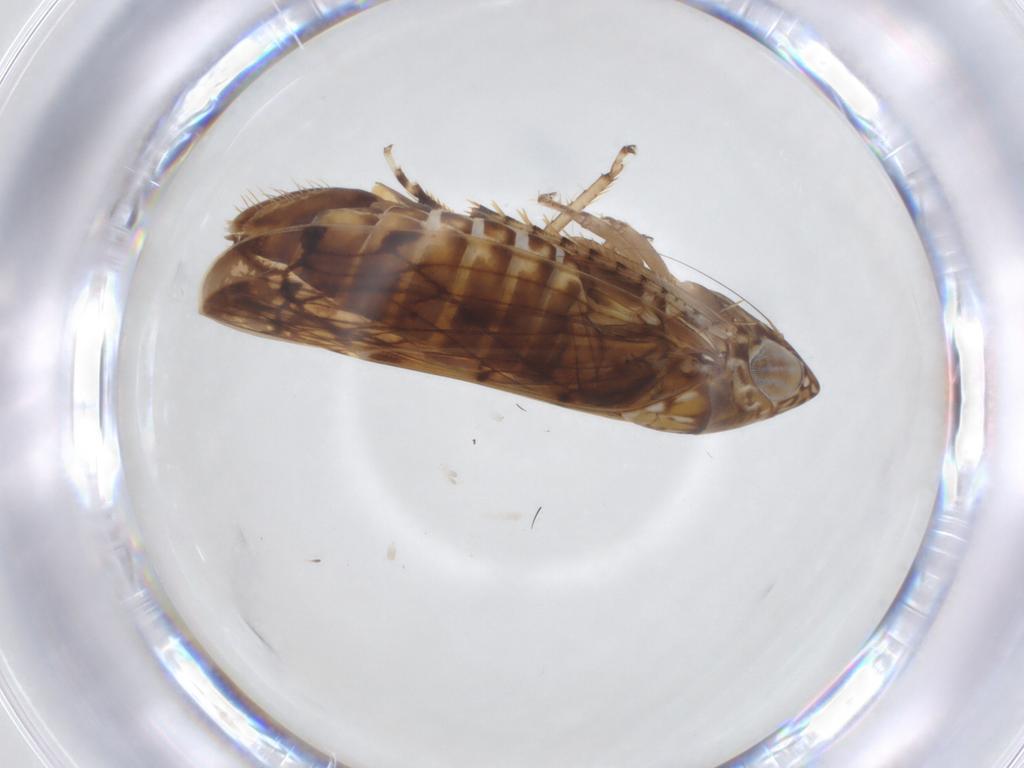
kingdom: Animalia
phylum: Arthropoda
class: Insecta
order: Hemiptera
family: Cicadellidae
